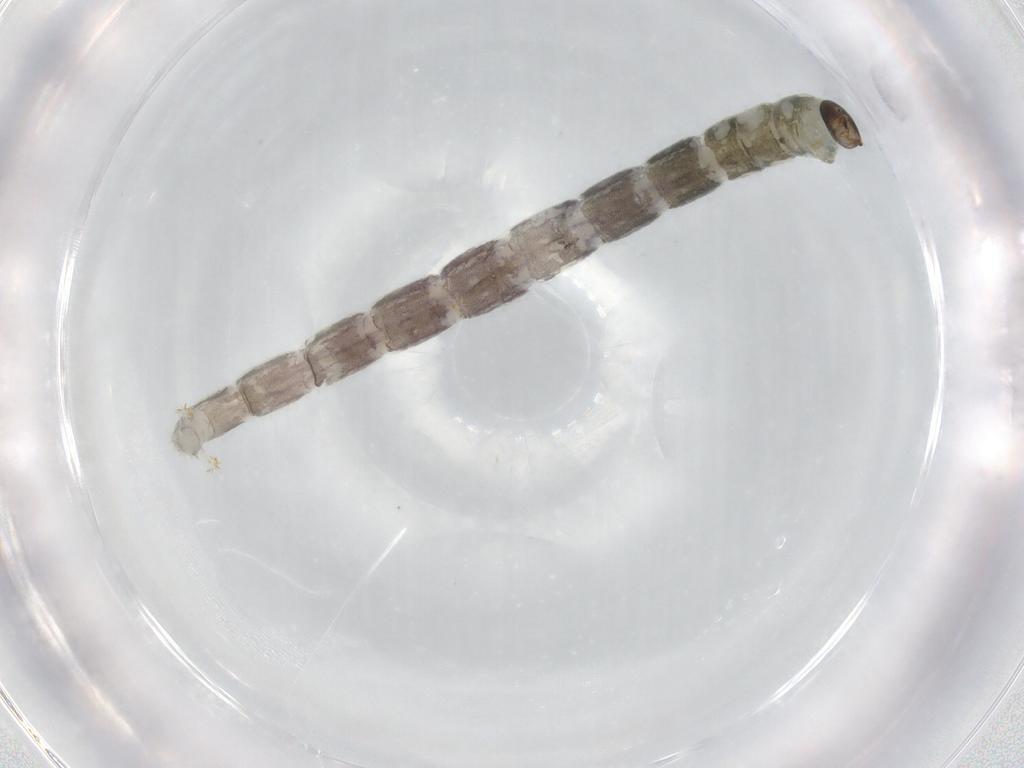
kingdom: Animalia
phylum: Arthropoda
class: Insecta
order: Diptera
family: Chironomidae
